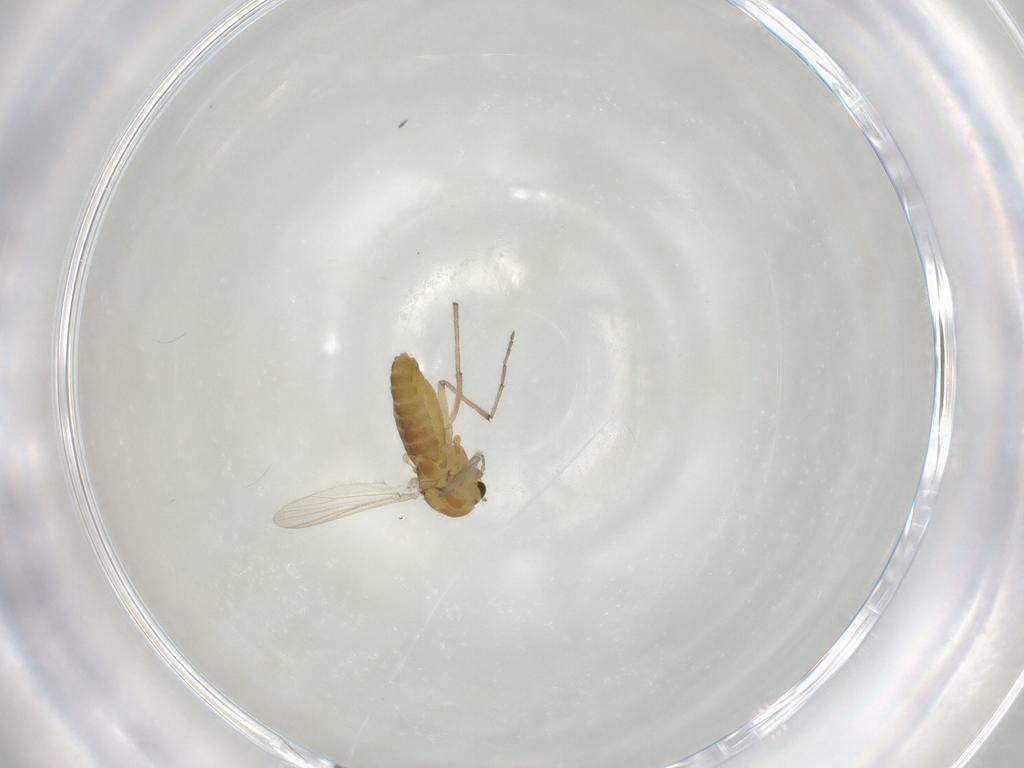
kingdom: Animalia
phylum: Arthropoda
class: Insecta
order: Diptera
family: Chironomidae
